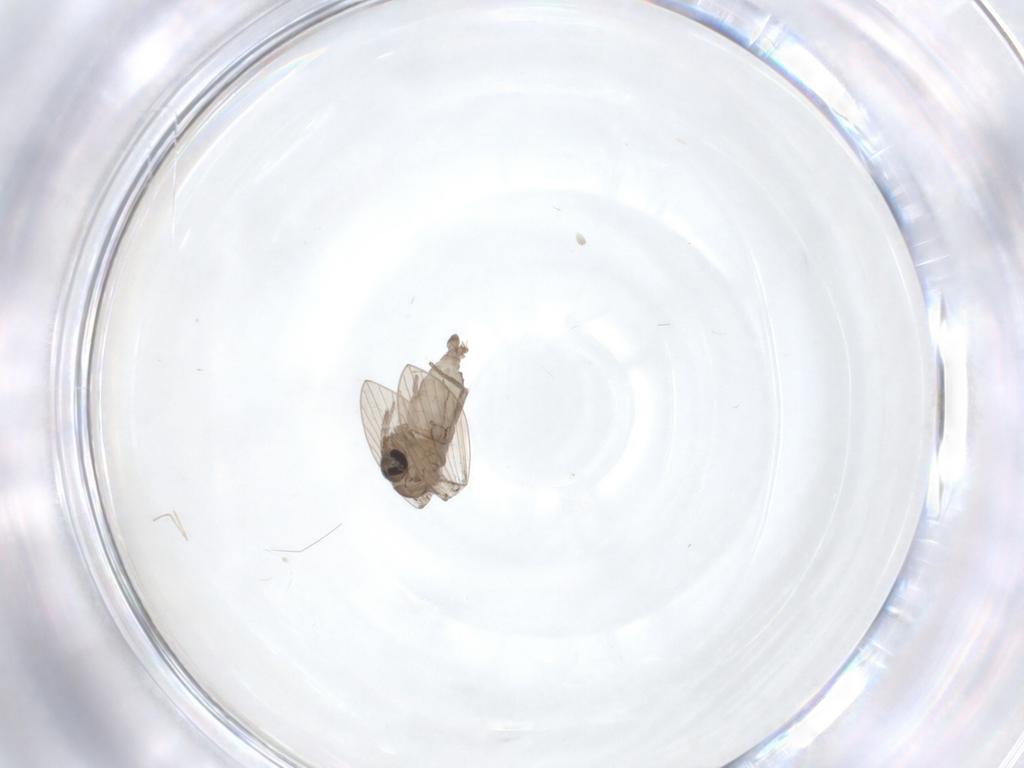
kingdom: Animalia
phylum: Arthropoda
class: Insecta
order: Diptera
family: Psychodidae
